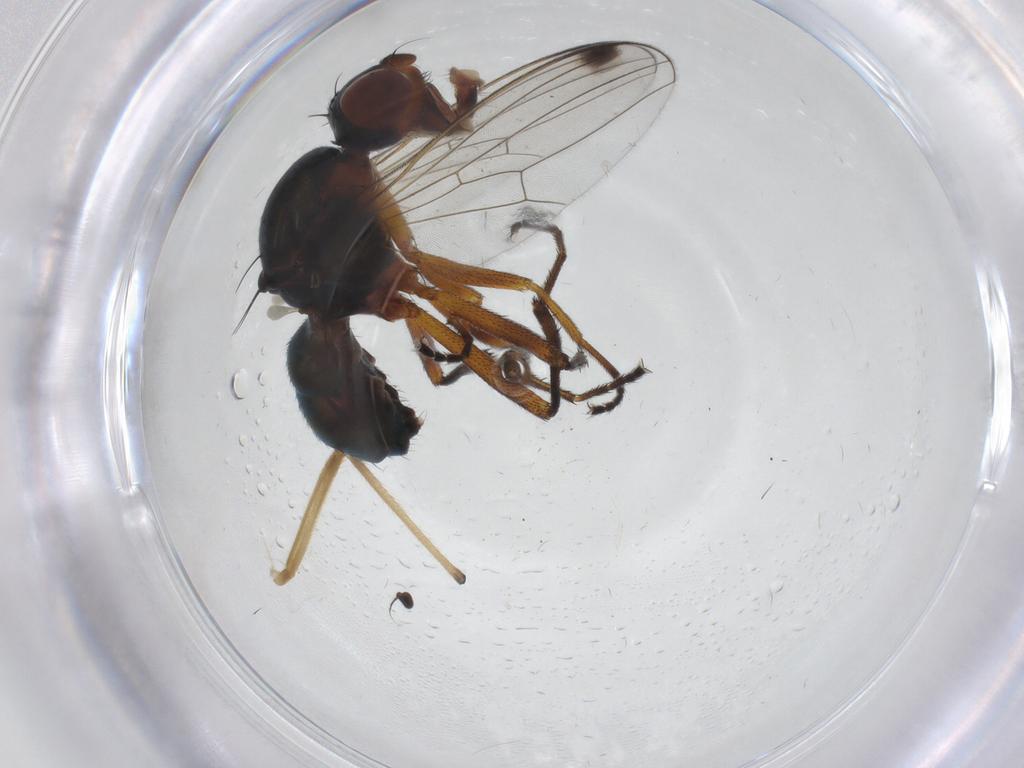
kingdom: Animalia
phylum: Arthropoda
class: Insecta
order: Diptera
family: Sepsidae
